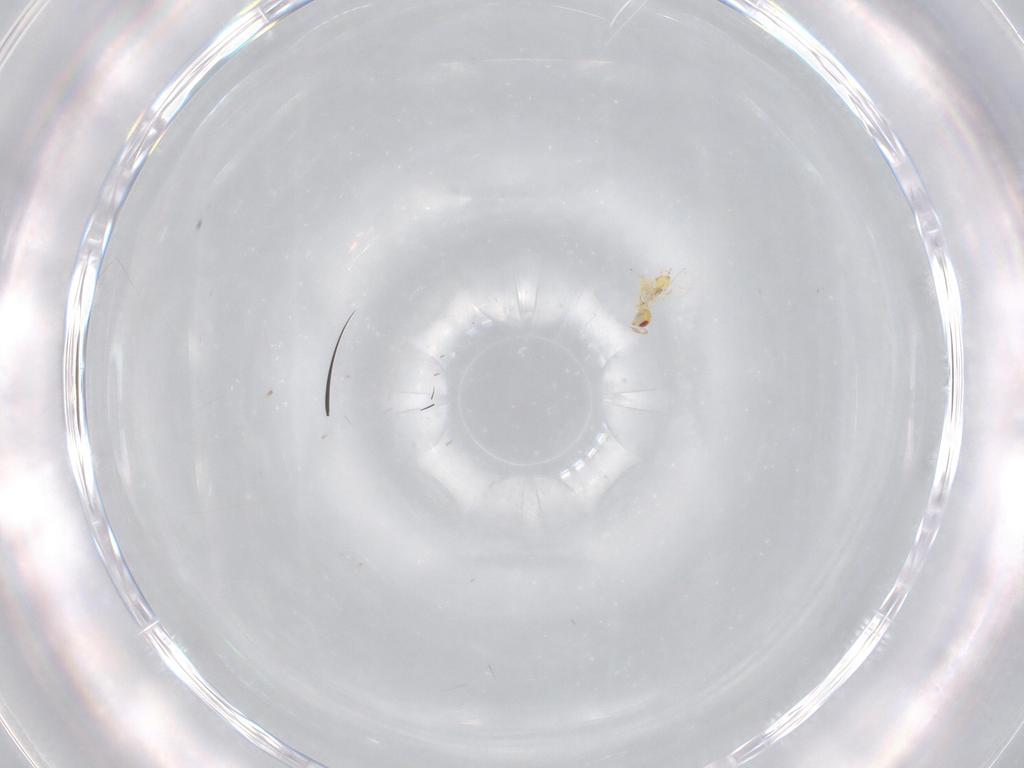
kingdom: Animalia
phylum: Arthropoda
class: Insecta
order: Hymenoptera
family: Trichogrammatidae
